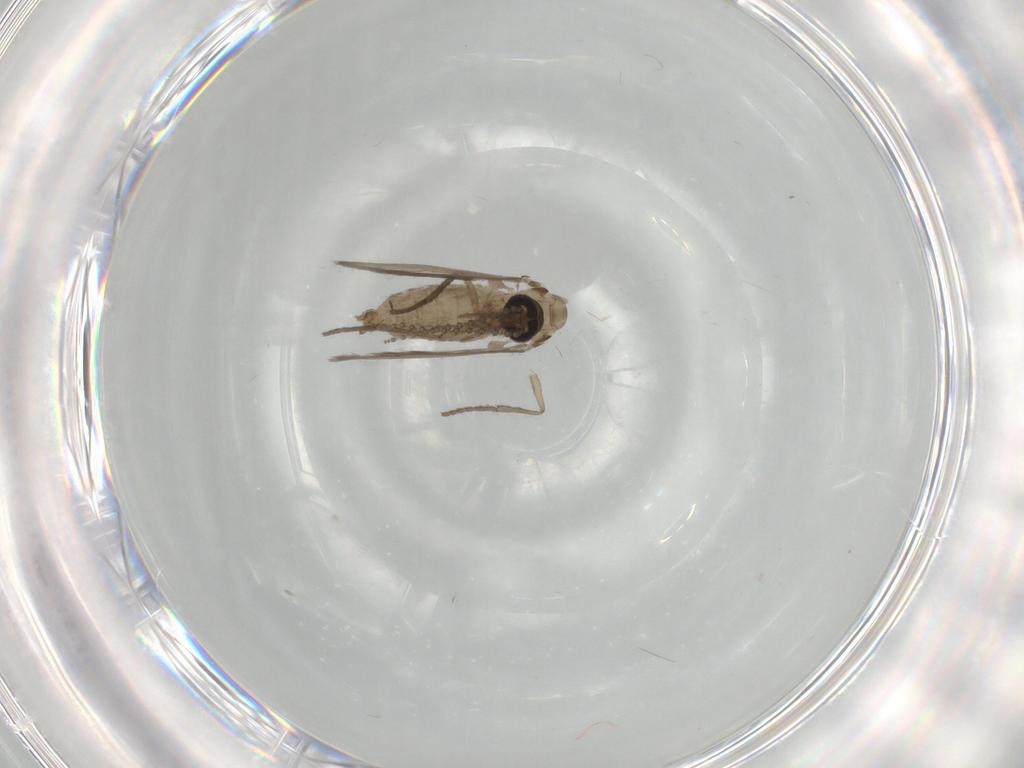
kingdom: Animalia
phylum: Arthropoda
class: Insecta
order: Diptera
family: Psychodidae
